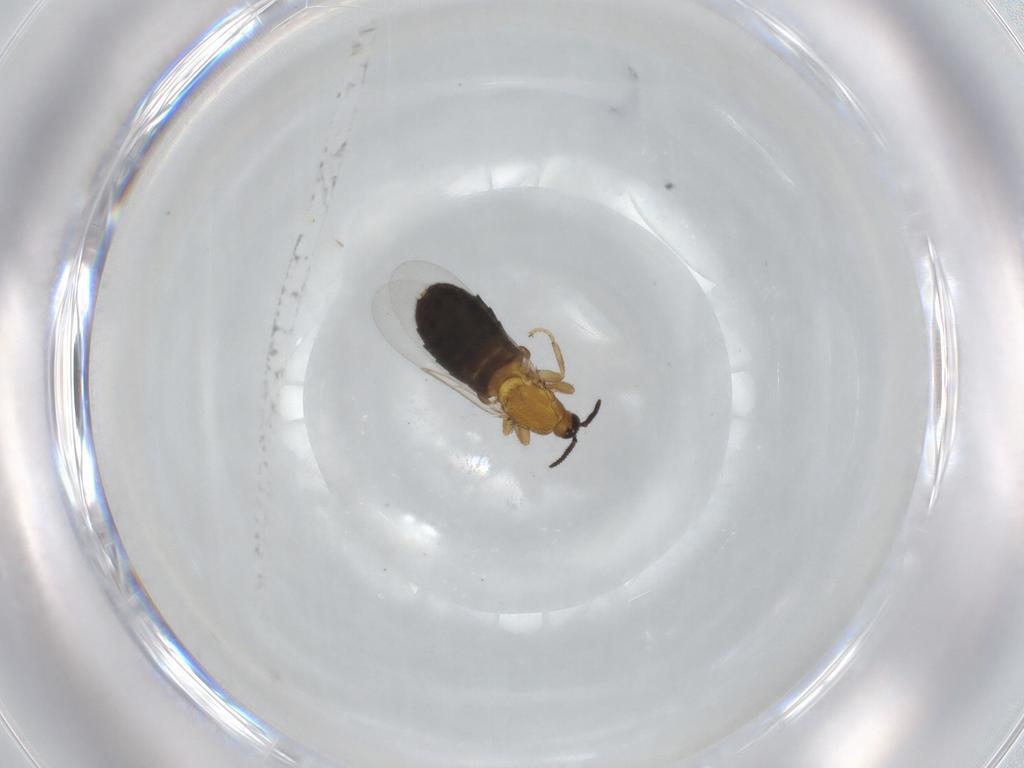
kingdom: Animalia
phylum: Arthropoda
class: Insecta
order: Diptera
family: Scatopsidae
